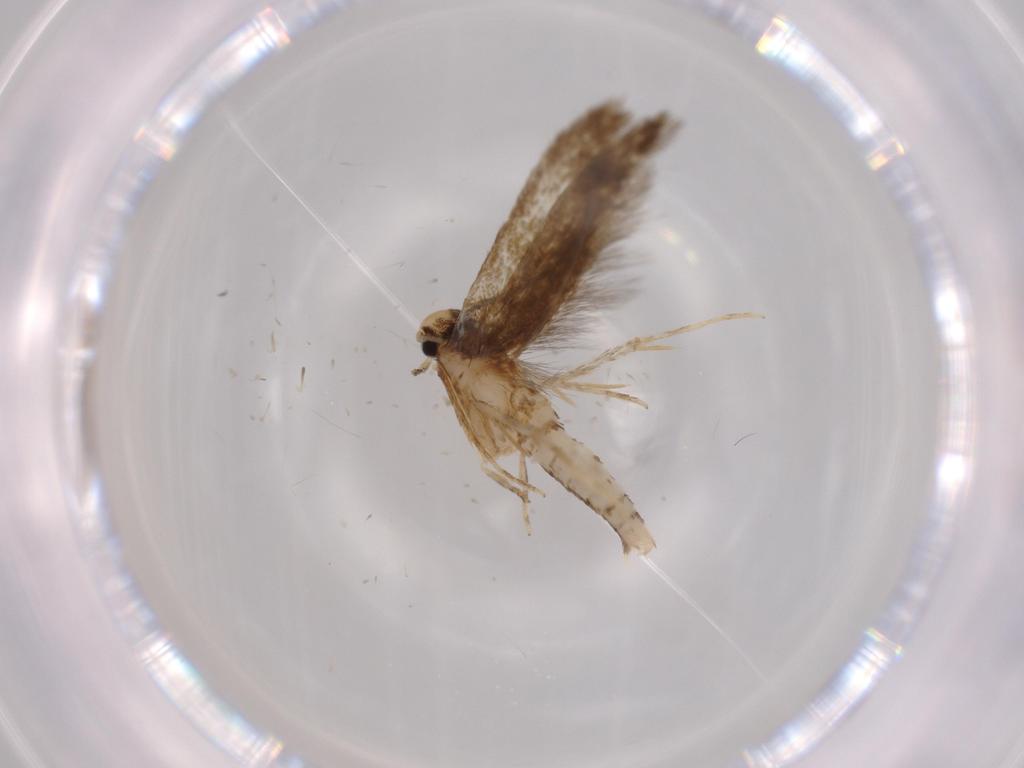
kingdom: Animalia
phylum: Arthropoda
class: Insecta
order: Lepidoptera
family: Tineidae
